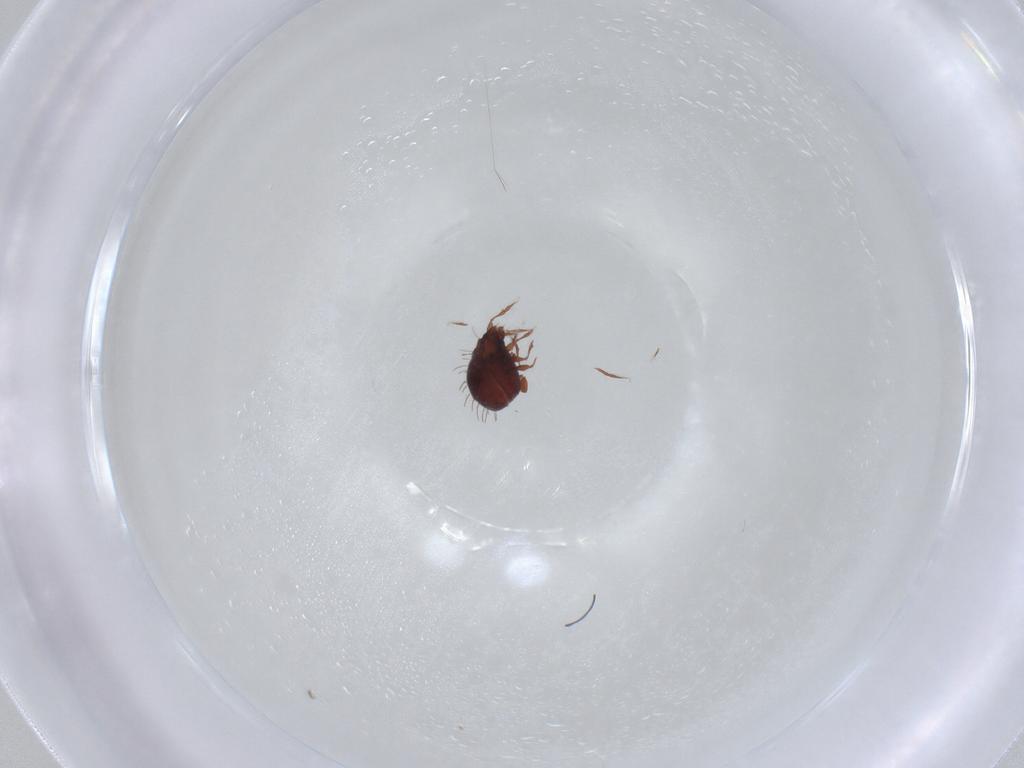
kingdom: Animalia
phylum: Arthropoda
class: Arachnida
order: Sarcoptiformes
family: Caloppiidae
